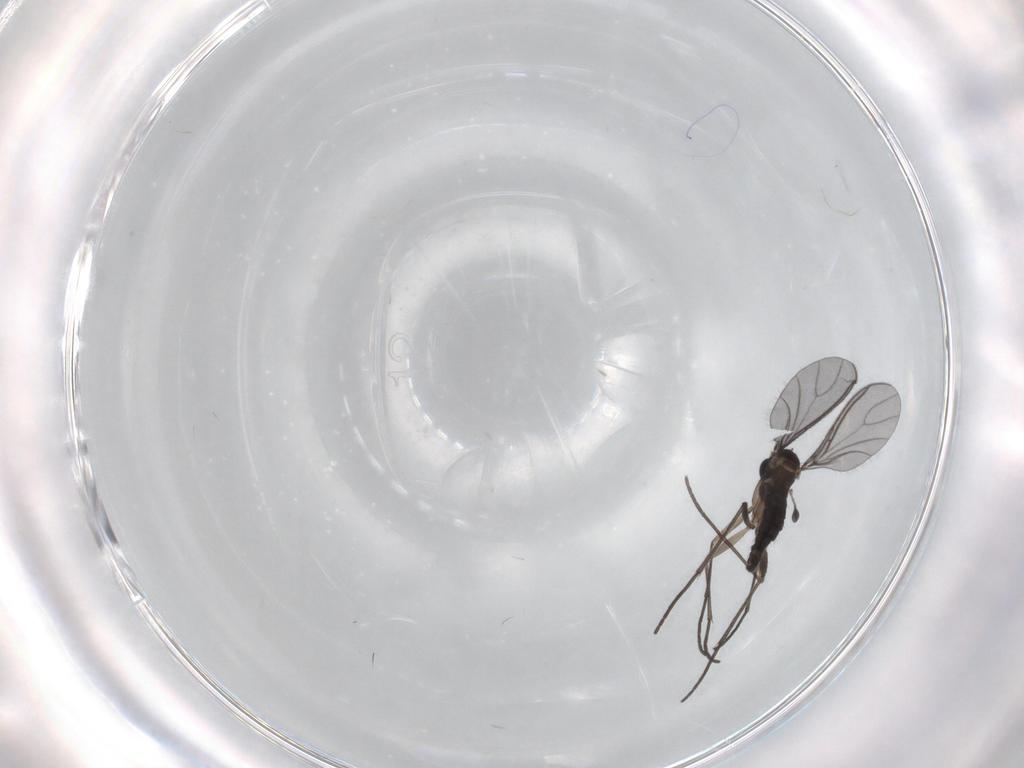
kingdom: Animalia
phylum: Arthropoda
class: Insecta
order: Diptera
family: Sciaridae
